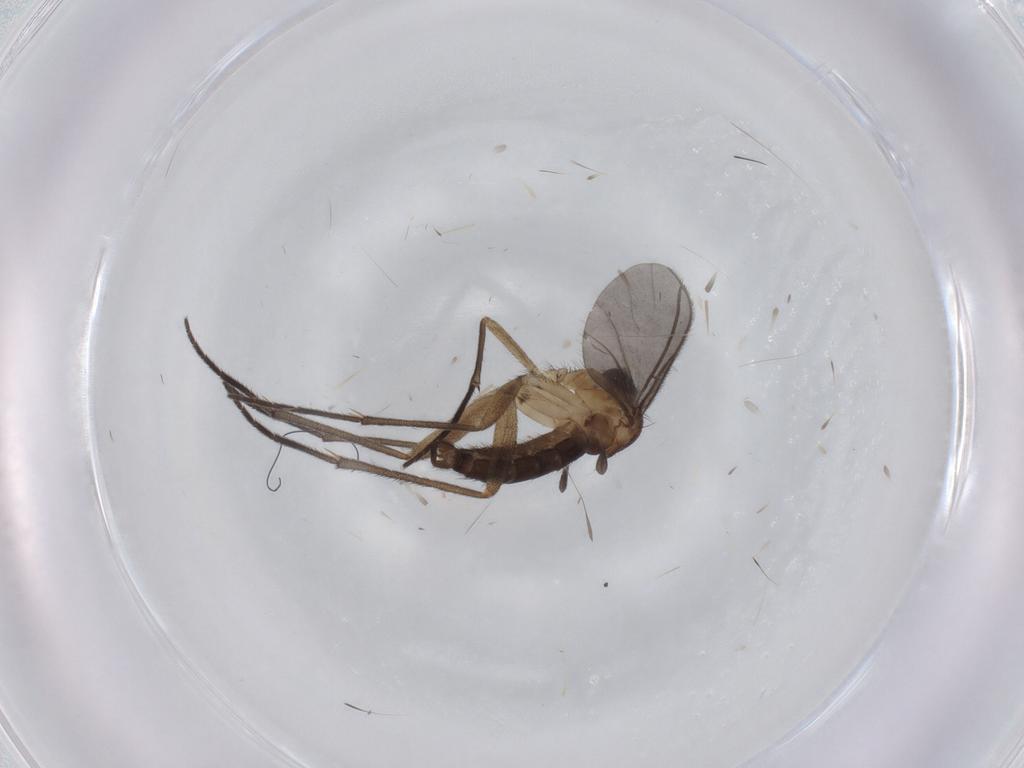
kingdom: Animalia
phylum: Arthropoda
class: Insecta
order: Diptera
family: Sciaridae
